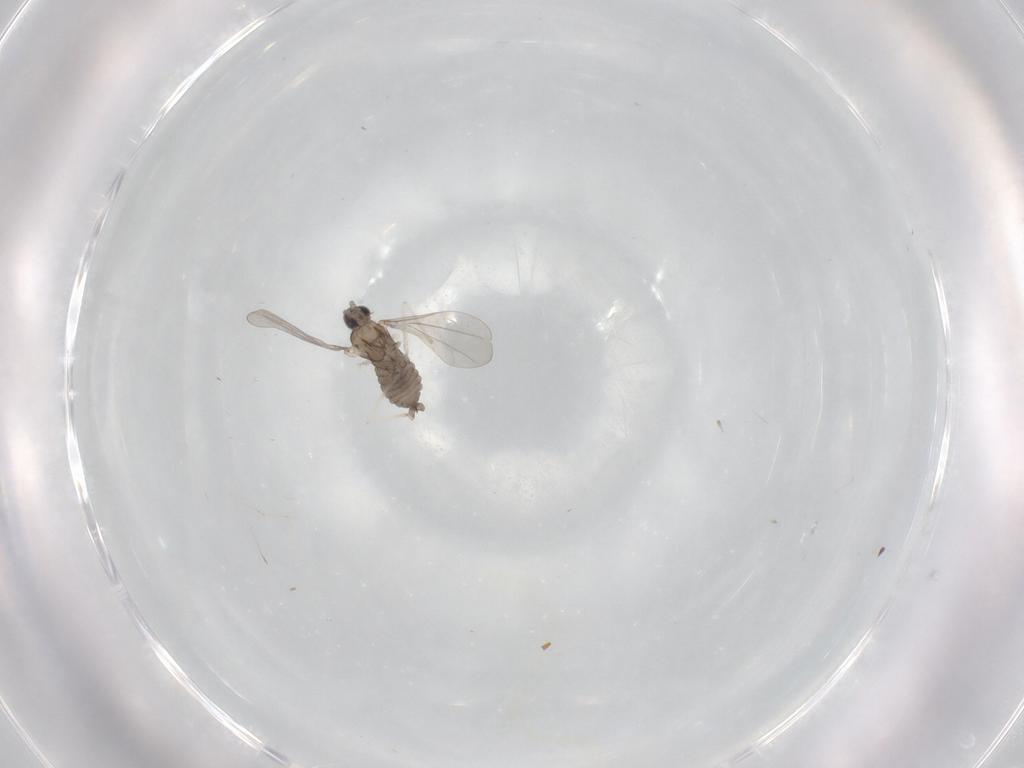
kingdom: Animalia
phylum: Arthropoda
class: Insecta
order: Diptera
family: Cecidomyiidae
